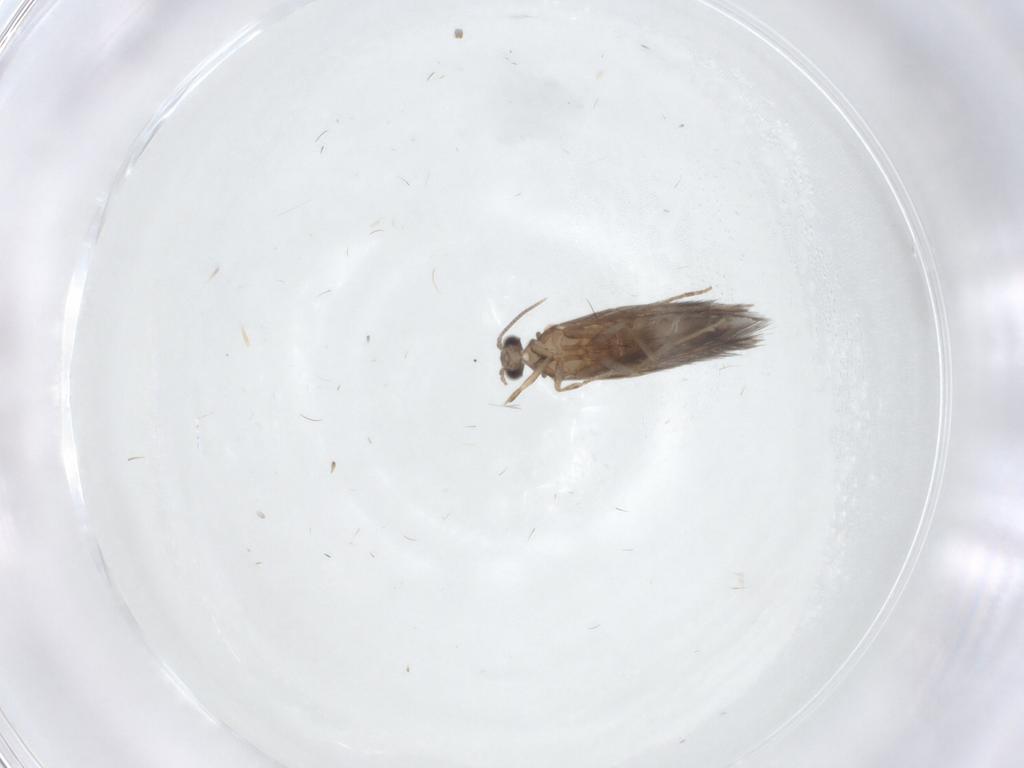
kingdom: Animalia
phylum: Arthropoda
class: Insecta
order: Trichoptera
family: Hydroptilidae
